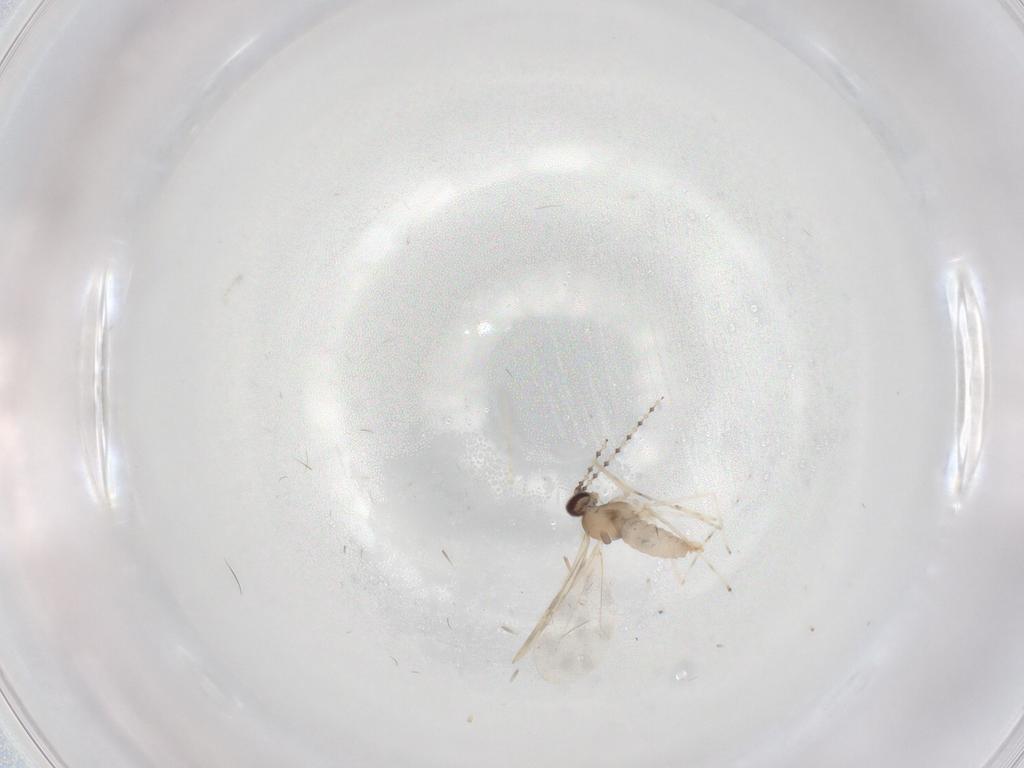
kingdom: Animalia
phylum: Arthropoda
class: Insecta
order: Diptera
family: Cecidomyiidae
